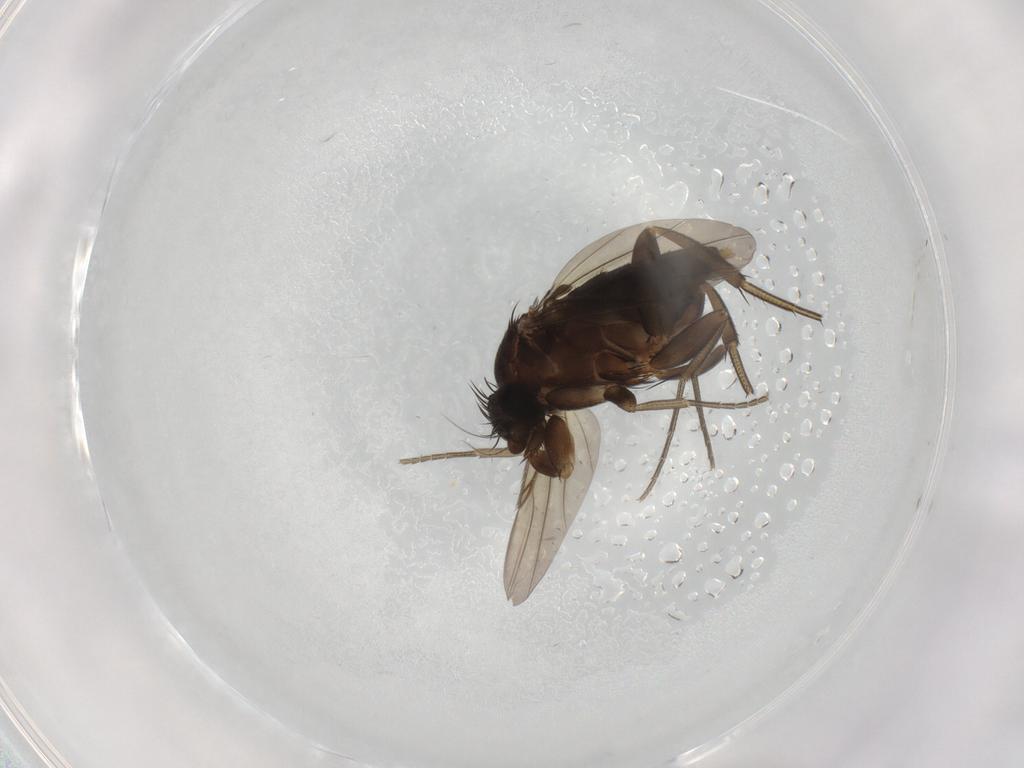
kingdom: Animalia
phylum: Arthropoda
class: Insecta
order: Diptera
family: Phoridae
